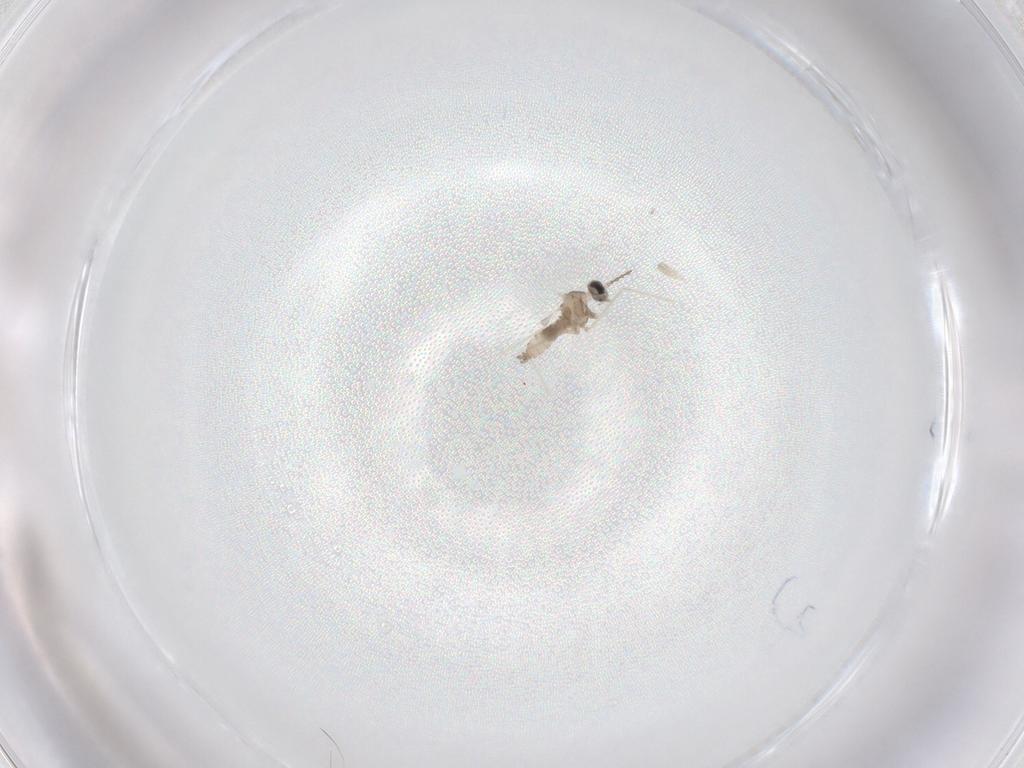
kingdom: Animalia
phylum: Arthropoda
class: Insecta
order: Diptera
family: Cecidomyiidae
